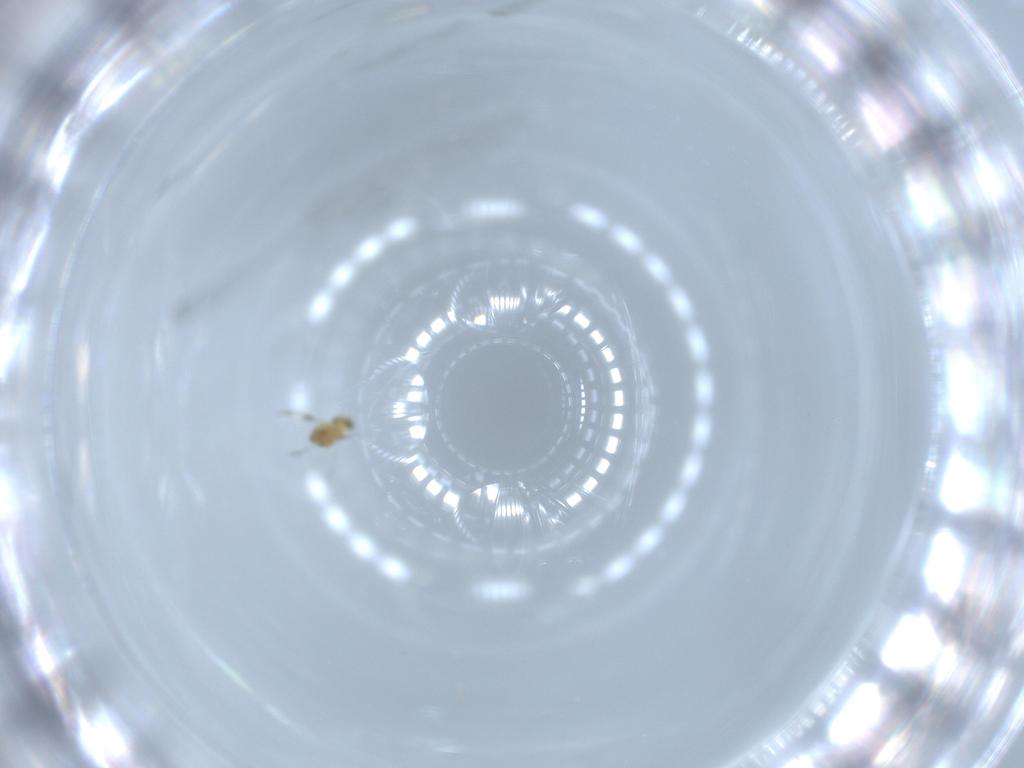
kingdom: Animalia
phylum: Arthropoda
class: Insecta
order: Hymenoptera
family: Signiphoridae
